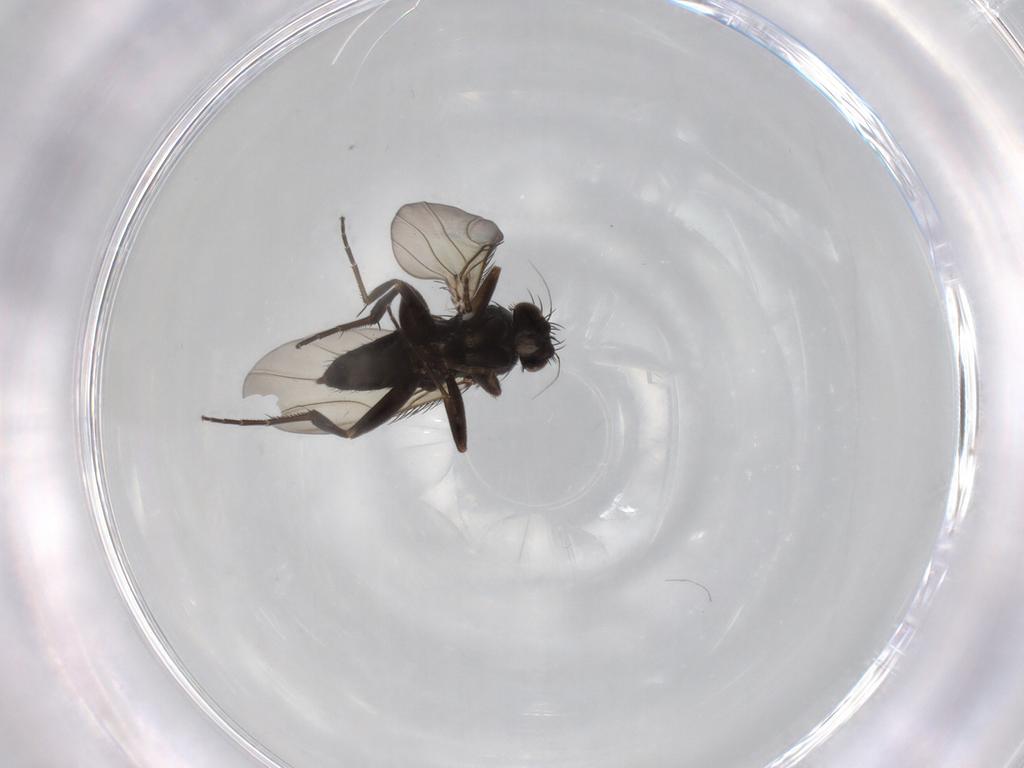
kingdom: Animalia
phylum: Arthropoda
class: Insecta
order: Diptera
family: Phoridae
